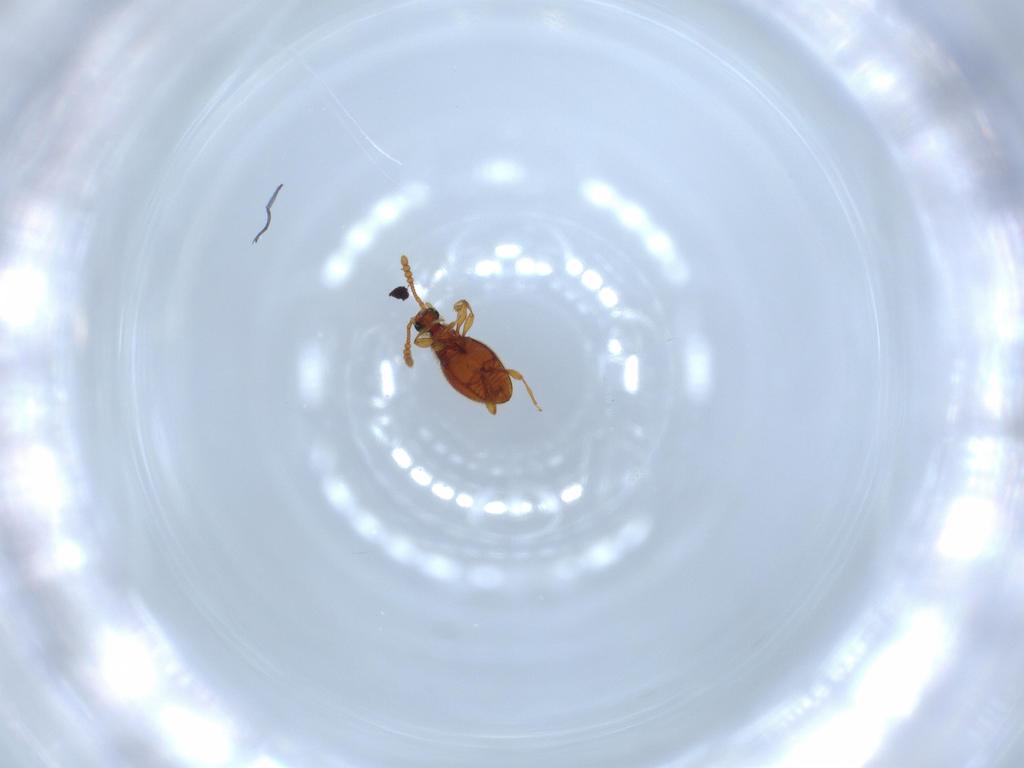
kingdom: Animalia
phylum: Arthropoda
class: Insecta
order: Coleoptera
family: Staphylinidae
